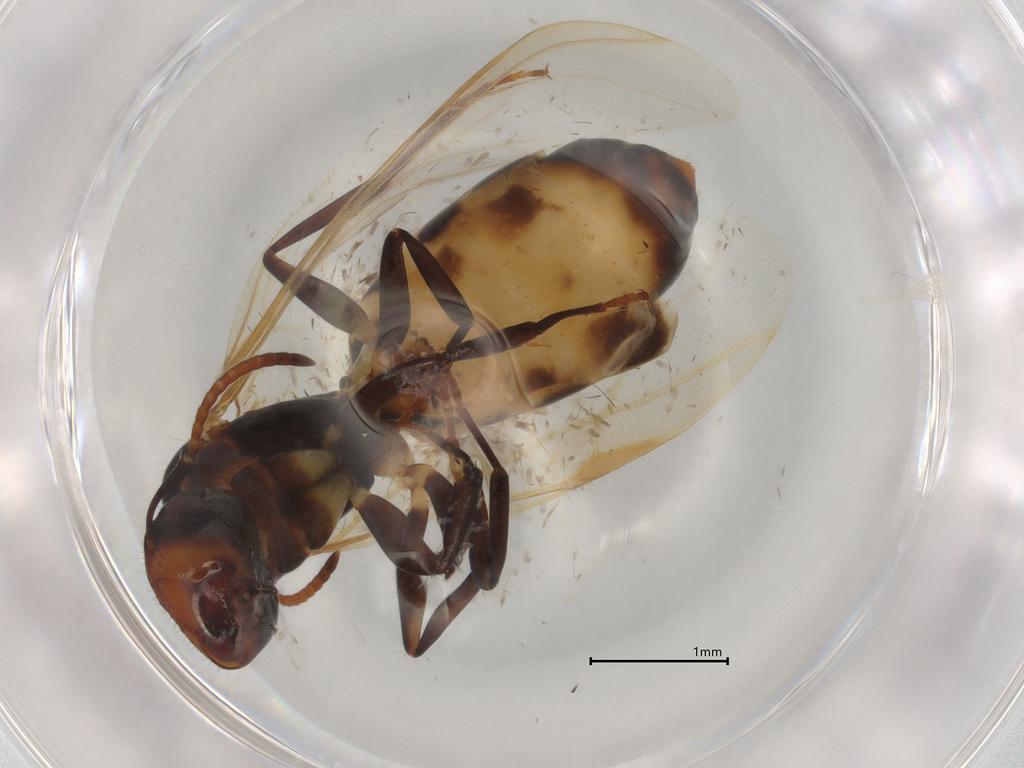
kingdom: Animalia
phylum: Arthropoda
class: Insecta
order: Hymenoptera
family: Formicidae
